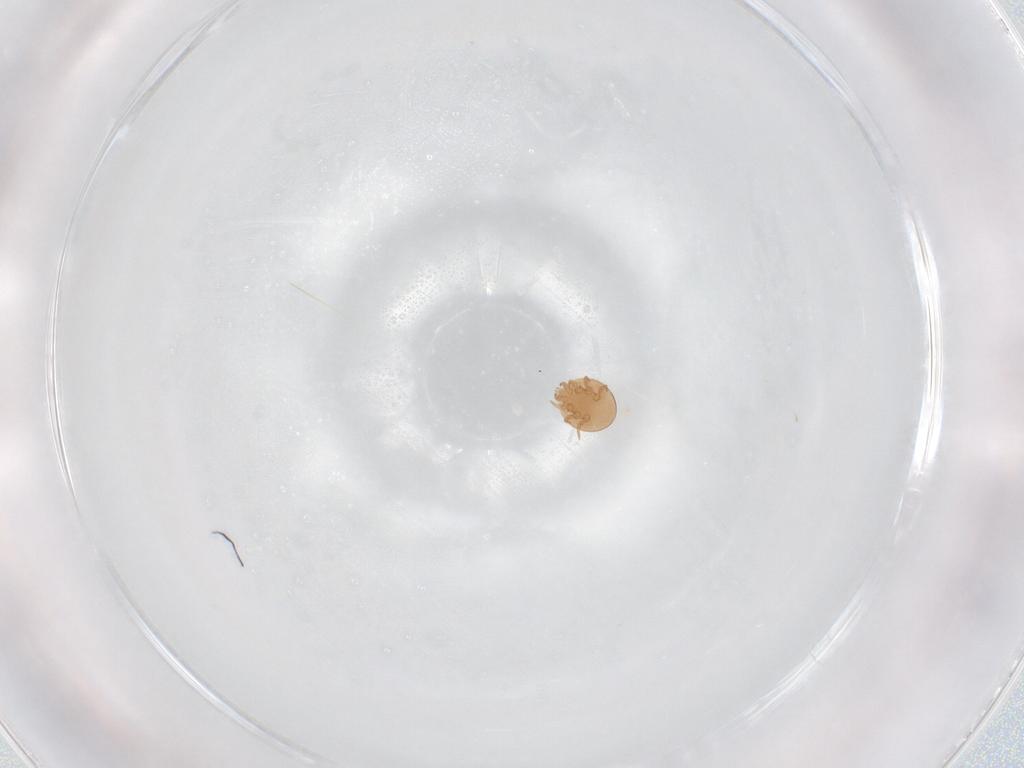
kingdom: Animalia
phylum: Arthropoda
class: Arachnida
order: Mesostigmata
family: Trematuridae
